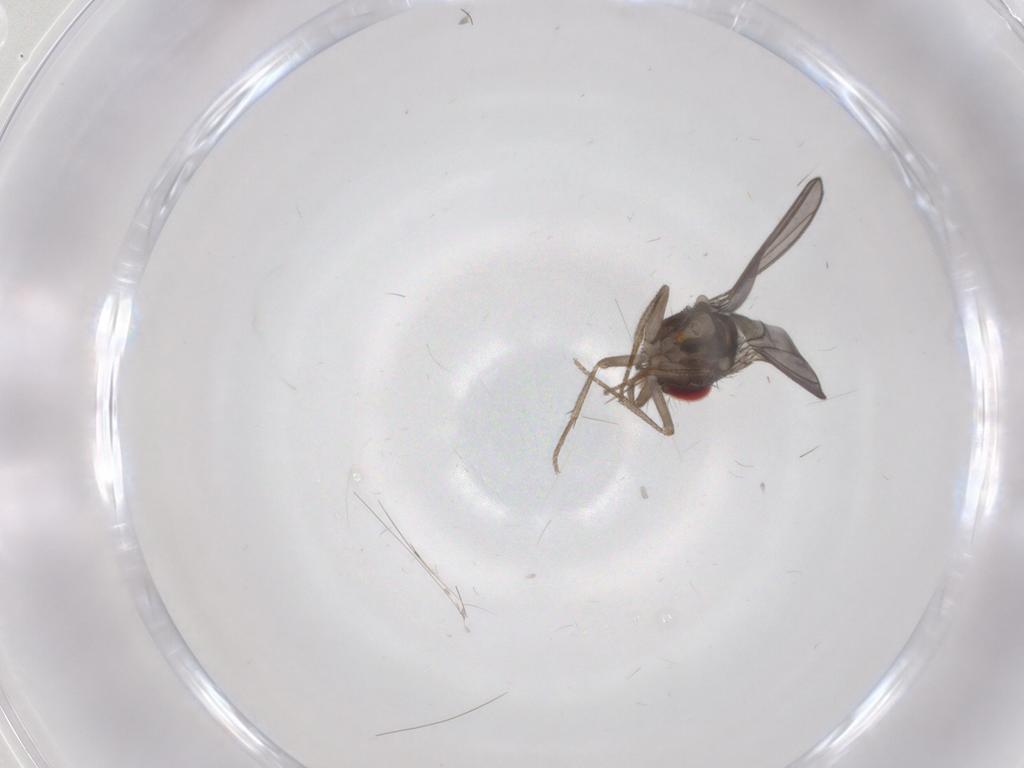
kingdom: Animalia
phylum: Arthropoda
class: Insecta
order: Diptera
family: Drosophilidae
